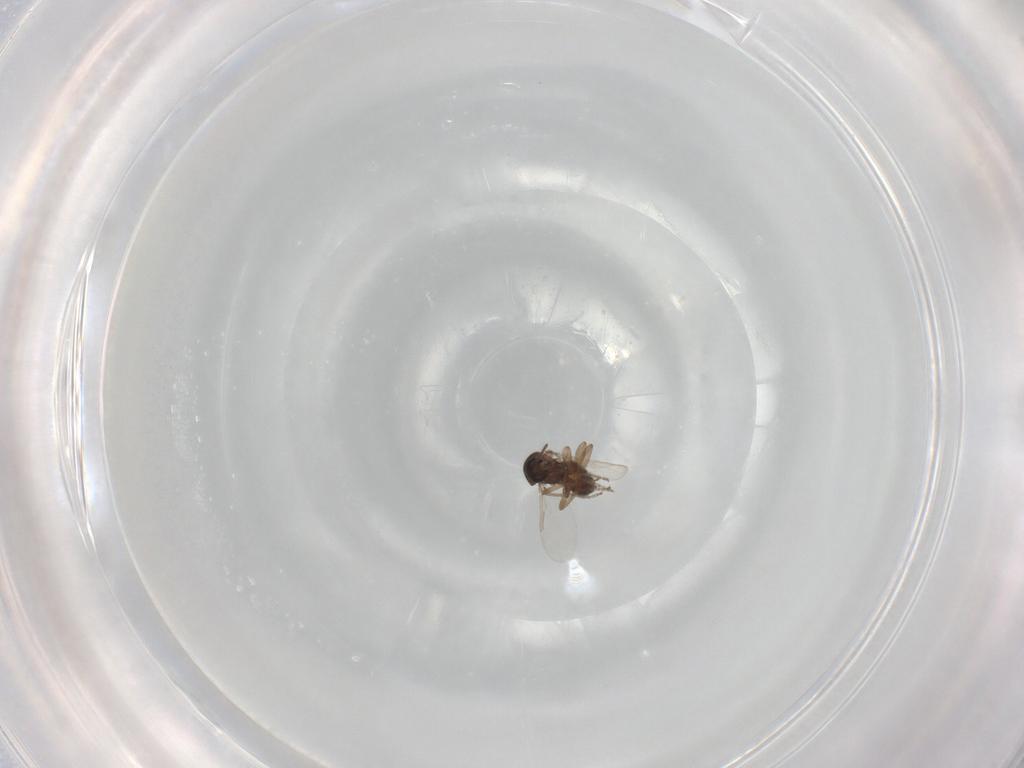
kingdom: Animalia
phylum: Arthropoda
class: Insecta
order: Diptera
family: Ceratopogonidae
